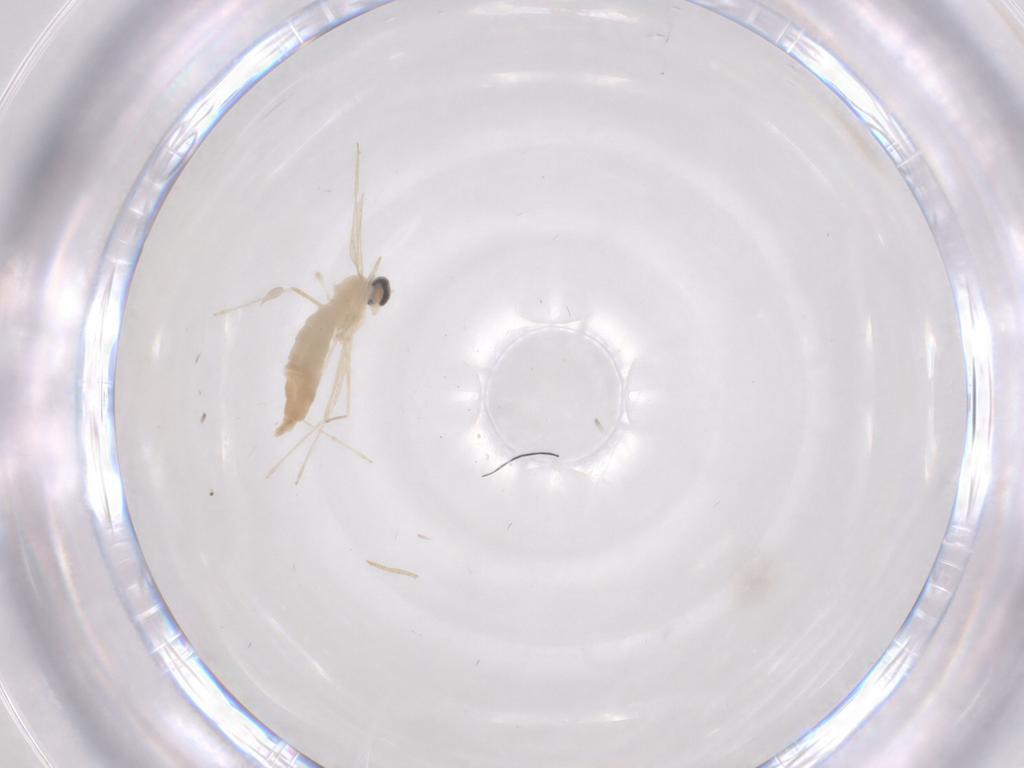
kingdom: Animalia
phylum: Arthropoda
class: Insecta
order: Diptera
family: Cecidomyiidae
